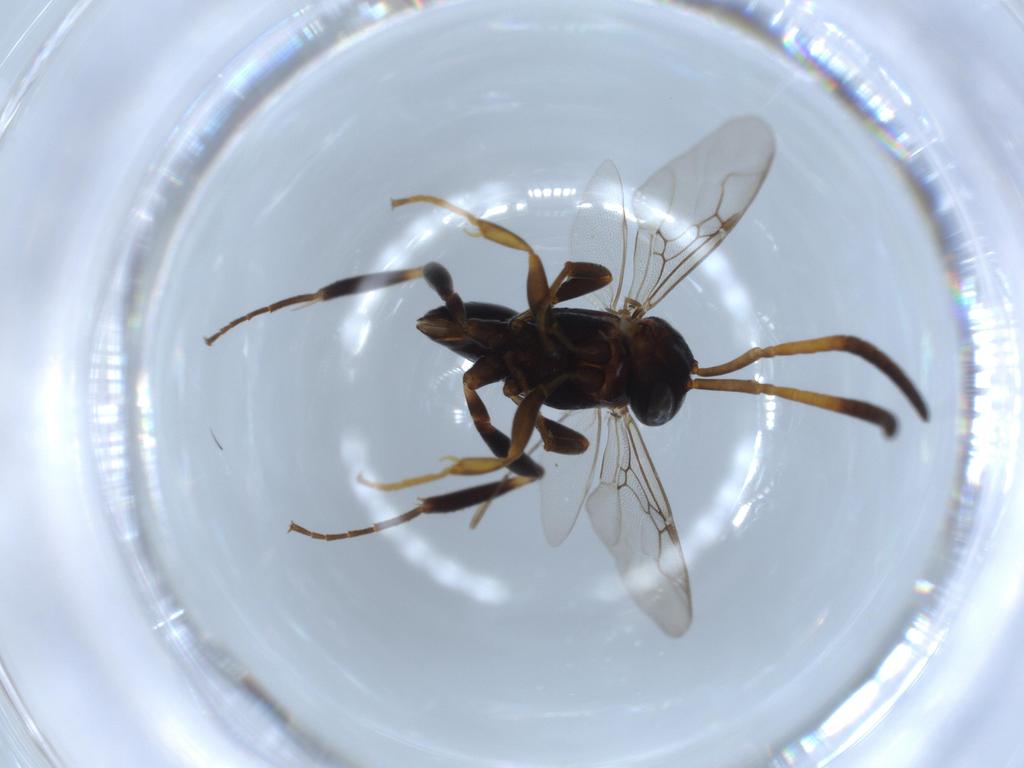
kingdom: Animalia
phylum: Arthropoda
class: Insecta
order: Hymenoptera
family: Evaniidae
